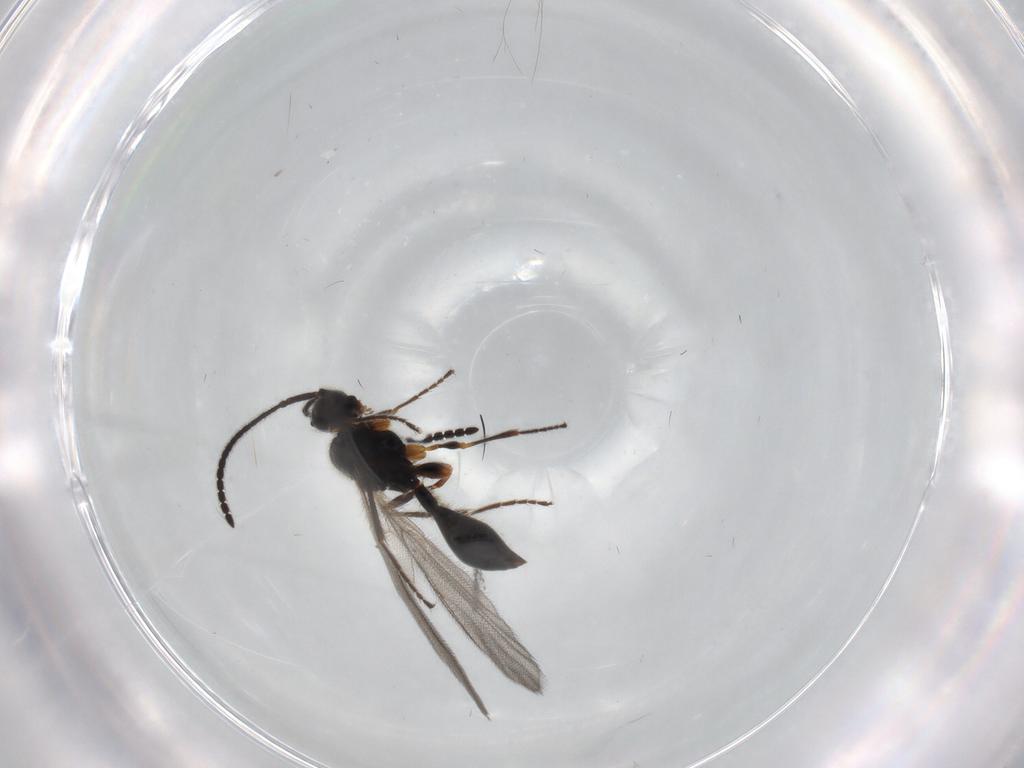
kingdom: Animalia
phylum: Arthropoda
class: Insecta
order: Hymenoptera
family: Diapriidae
